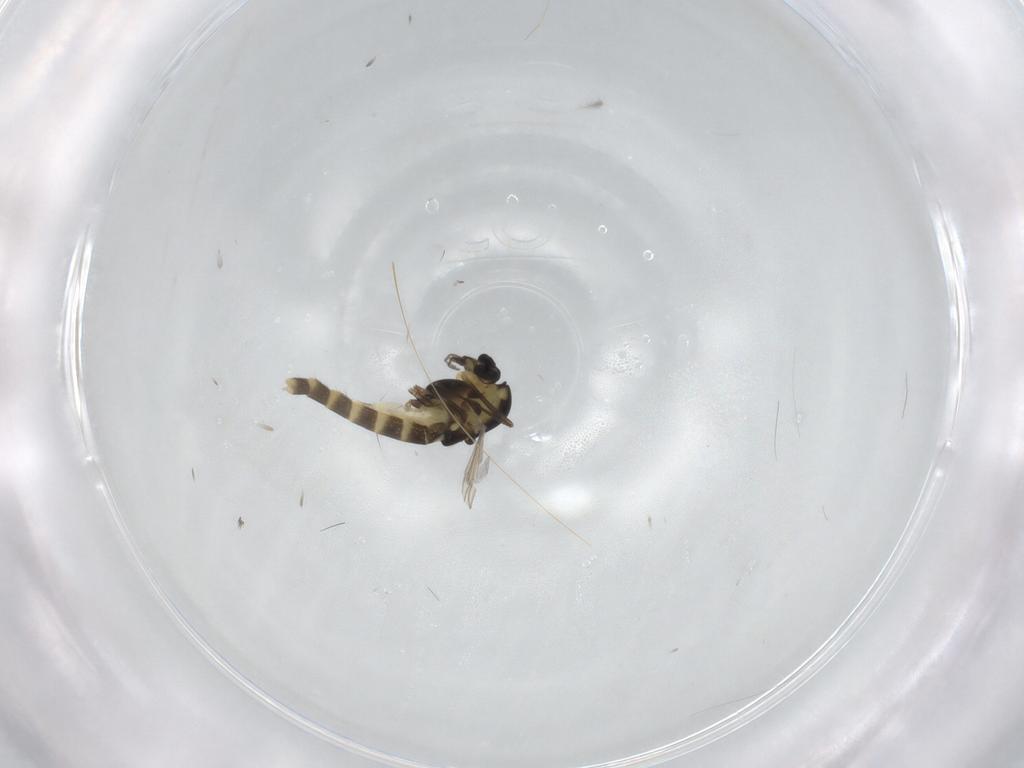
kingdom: Animalia
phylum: Arthropoda
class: Insecta
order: Diptera
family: Chironomidae
